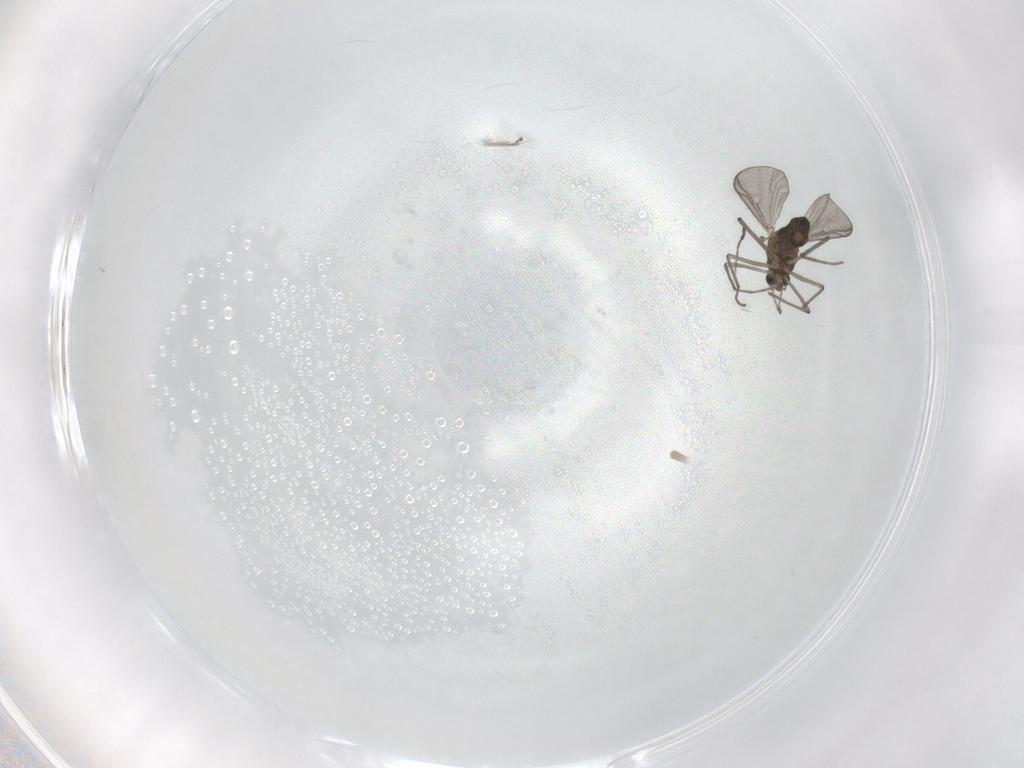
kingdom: Animalia
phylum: Arthropoda
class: Insecta
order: Diptera
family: Chironomidae
